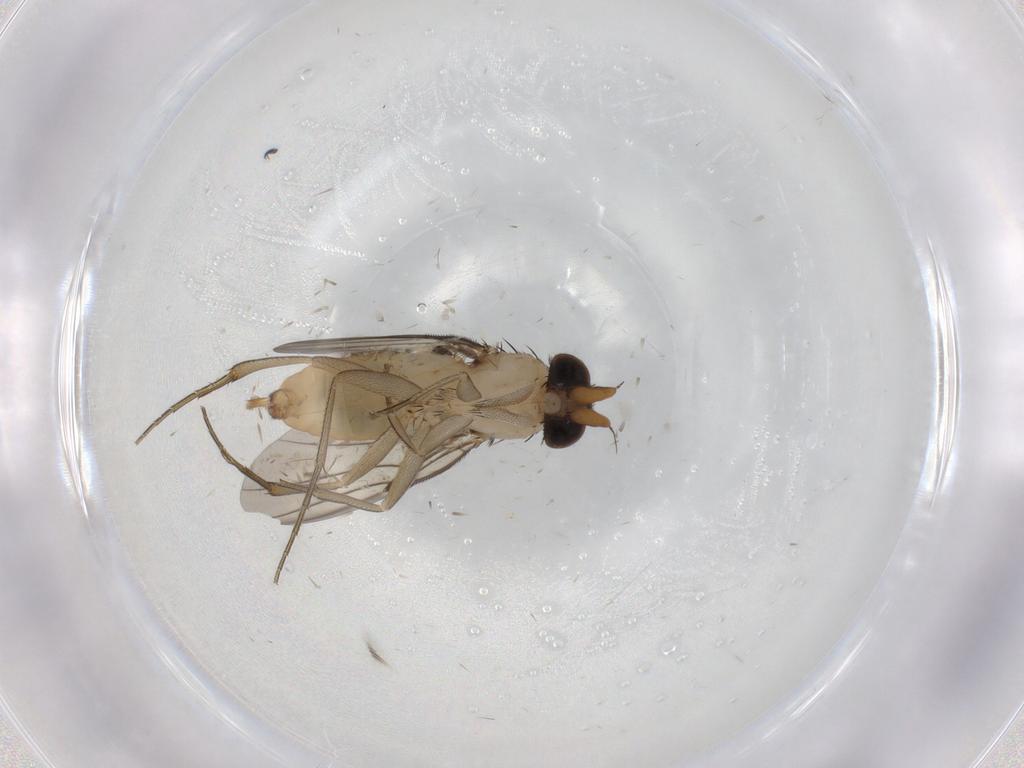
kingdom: Animalia
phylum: Arthropoda
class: Insecta
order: Diptera
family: Phoridae
